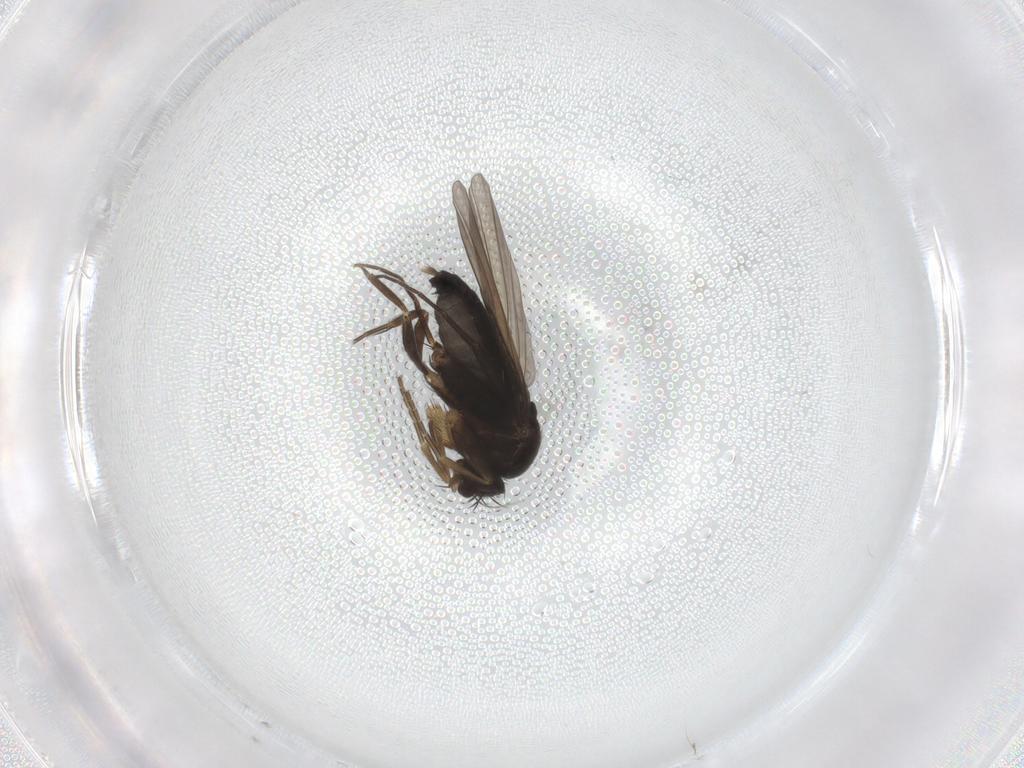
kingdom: Animalia
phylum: Arthropoda
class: Insecta
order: Diptera
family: Phoridae
